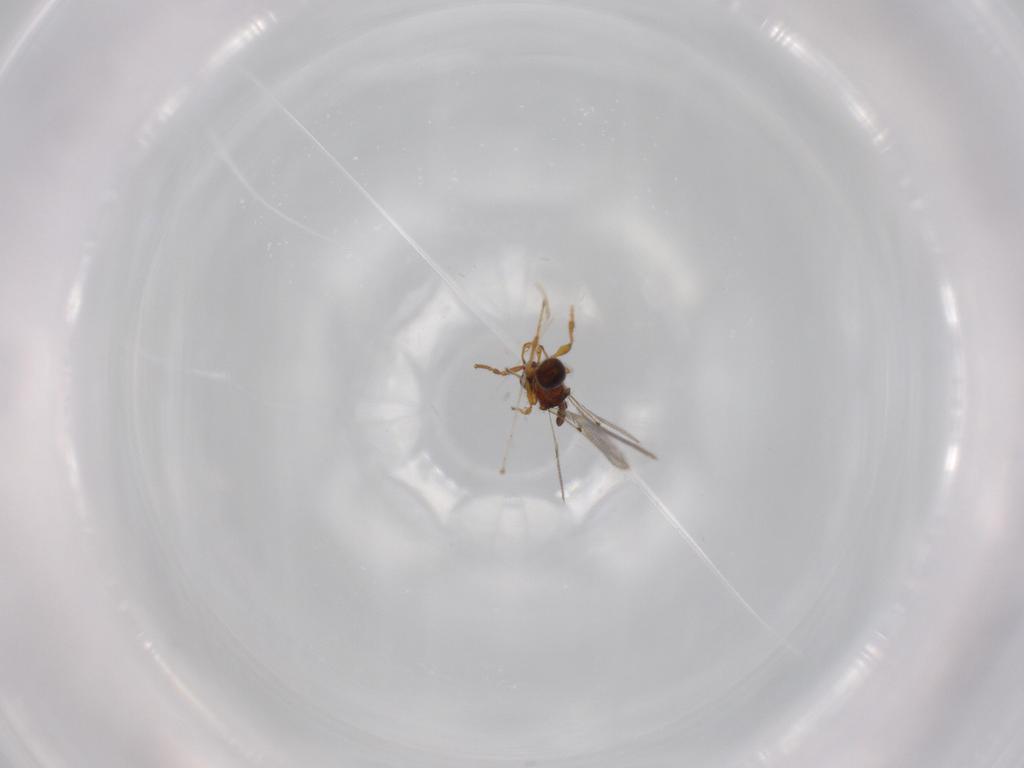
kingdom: Animalia
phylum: Arthropoda
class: Insecta
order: Hymenoptera
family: Diapriidae
